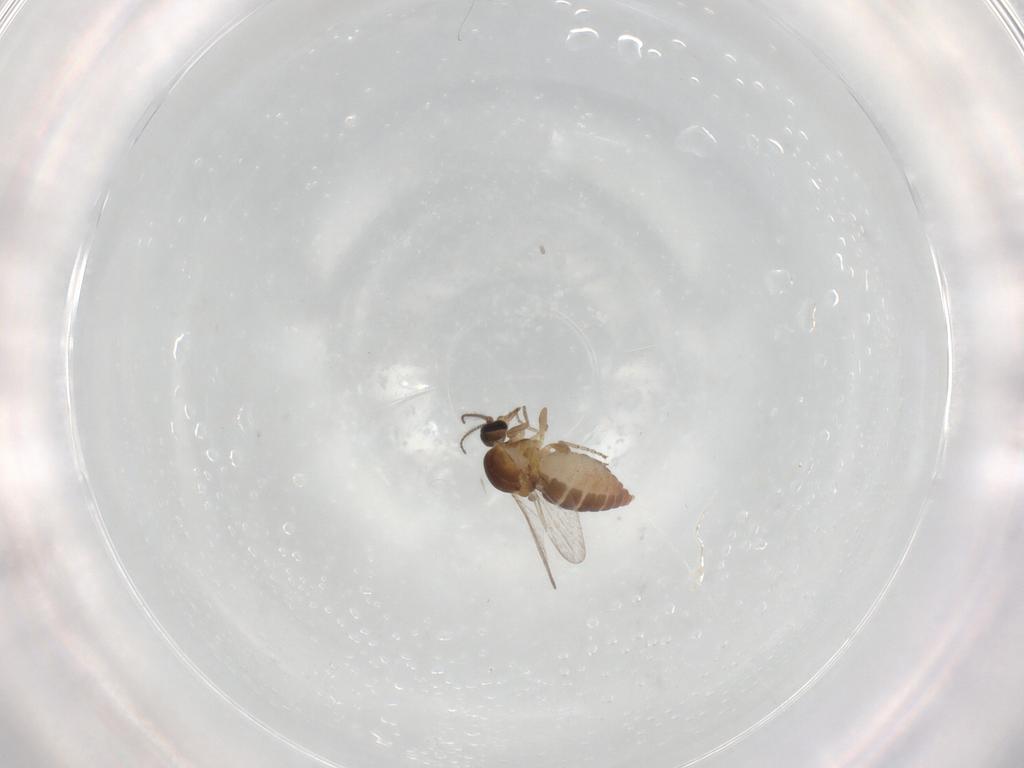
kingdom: Animalia
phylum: Arthropoda
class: Insecta
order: Diptera
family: Ceratopogonidae
